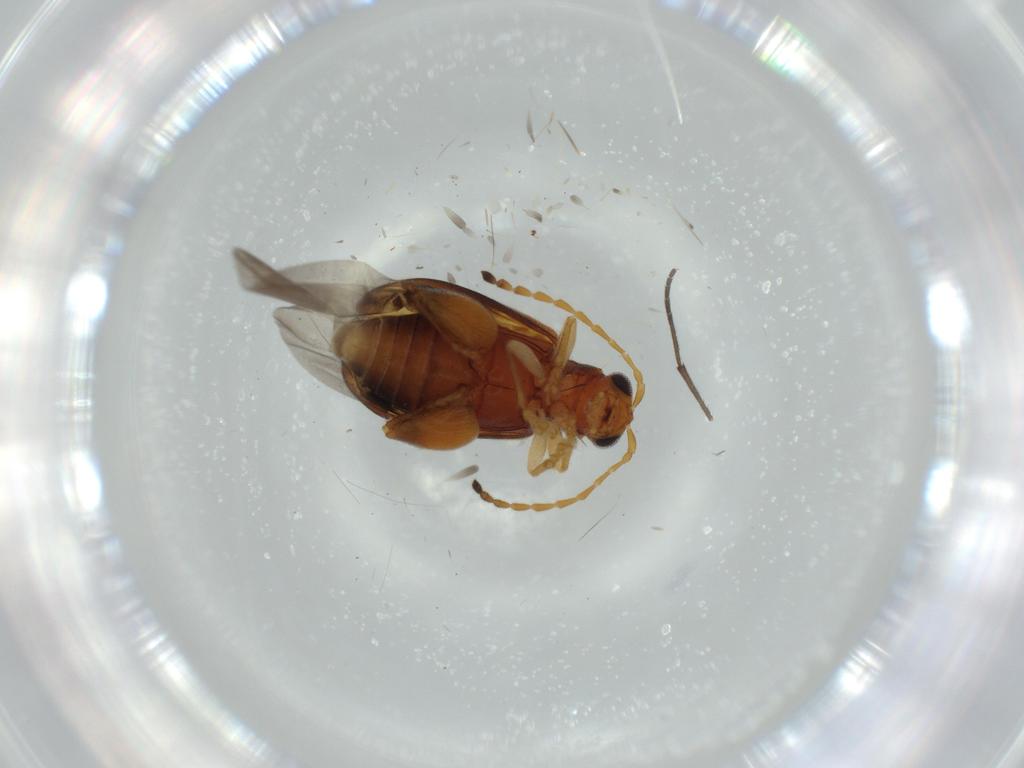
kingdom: Animalia
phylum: Arthropoda
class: Insecta
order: Coleoptera
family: Chrysomelidae
